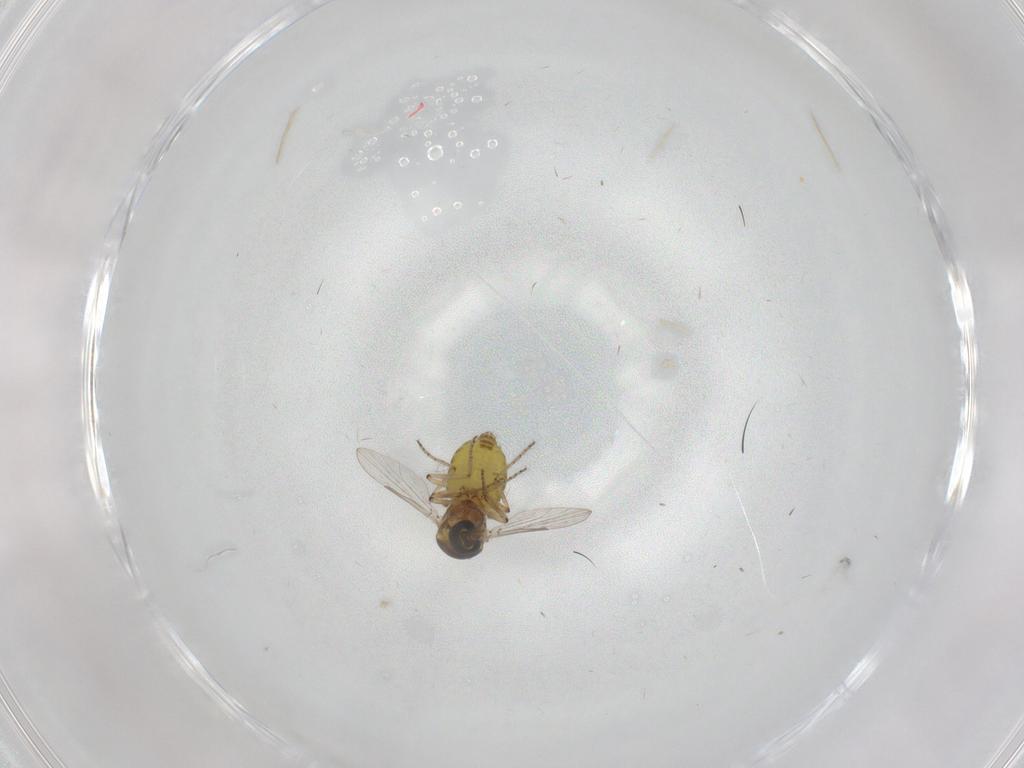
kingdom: Animalia
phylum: Arthropoda
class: Insecta
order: Diptera
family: Ceratopogonidae
